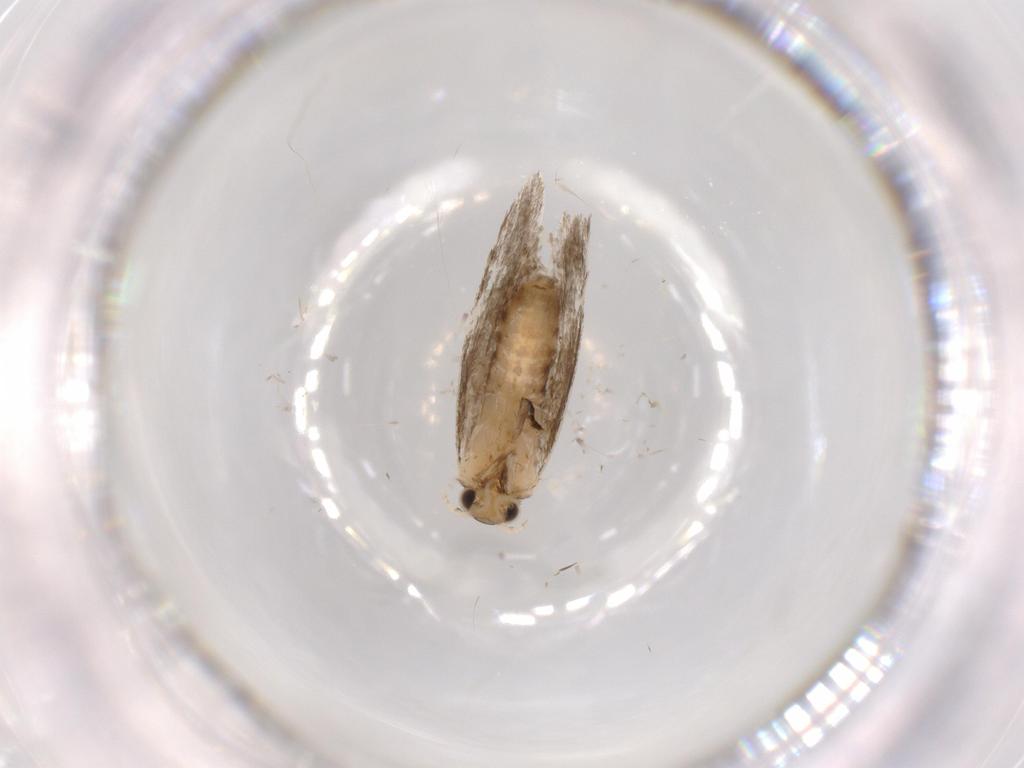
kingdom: Animalia
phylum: Arthropoda
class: Insecta
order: Lepidoptera
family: Tineidae
